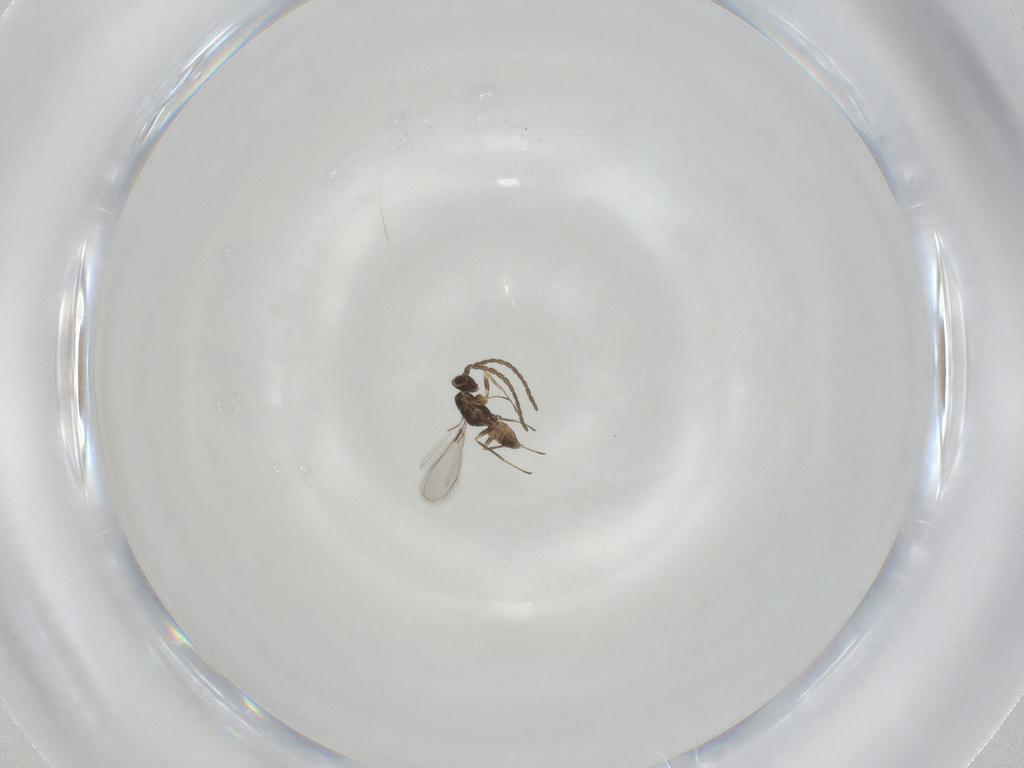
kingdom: Animalia
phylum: Arthropoda
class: Insecta
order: Hymenoptera
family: Mymaridae
